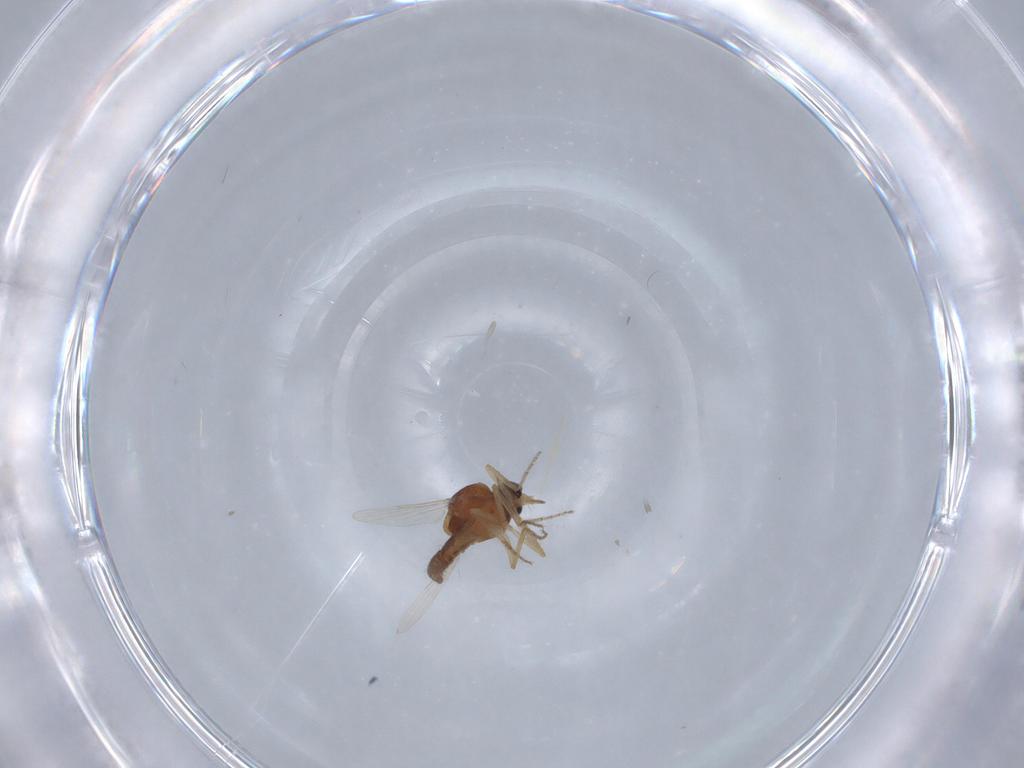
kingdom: Animalia
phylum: Arthropoda
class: Insecta
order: Diptera
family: Ceratopogonidae
